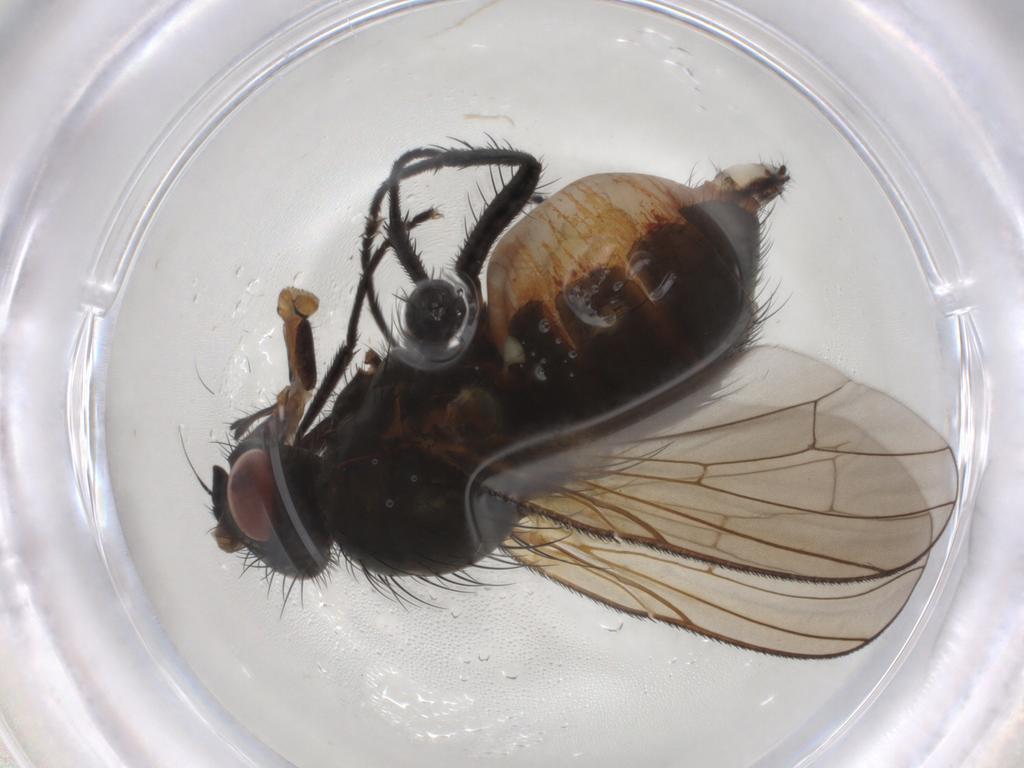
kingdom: Animalia
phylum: Arthropoda
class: Insecta
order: Diptera
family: Anthomyiidae
